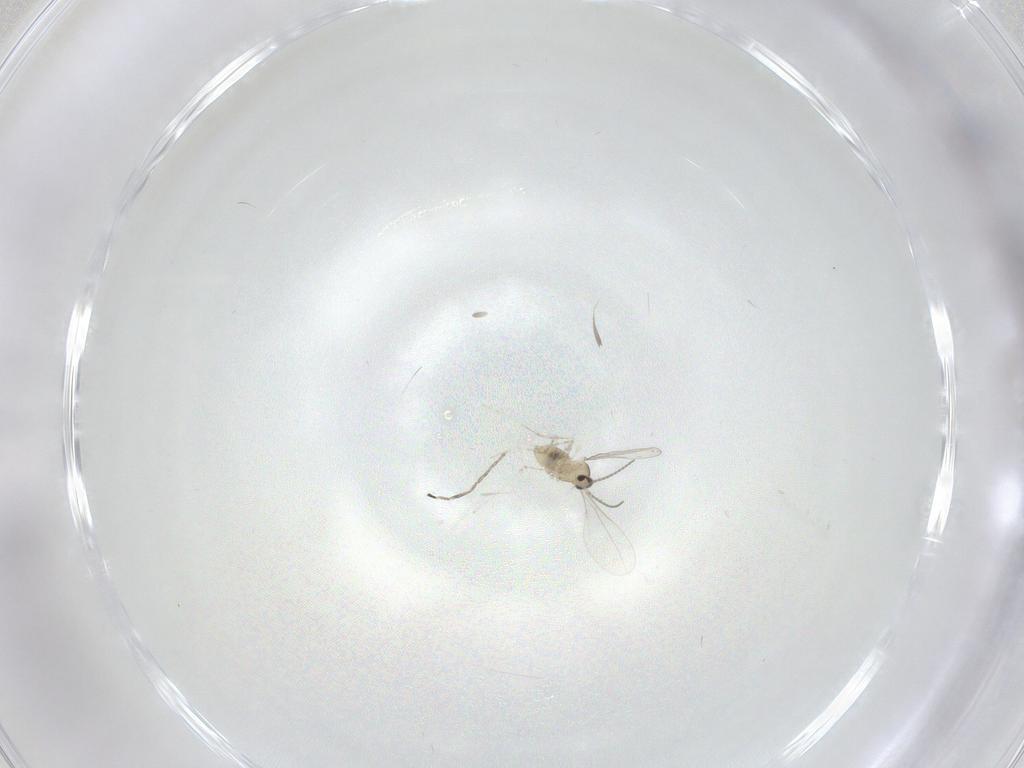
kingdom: Animalia
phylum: Arthropoda
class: Insecta
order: Diptera
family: Cecidomyiidae
